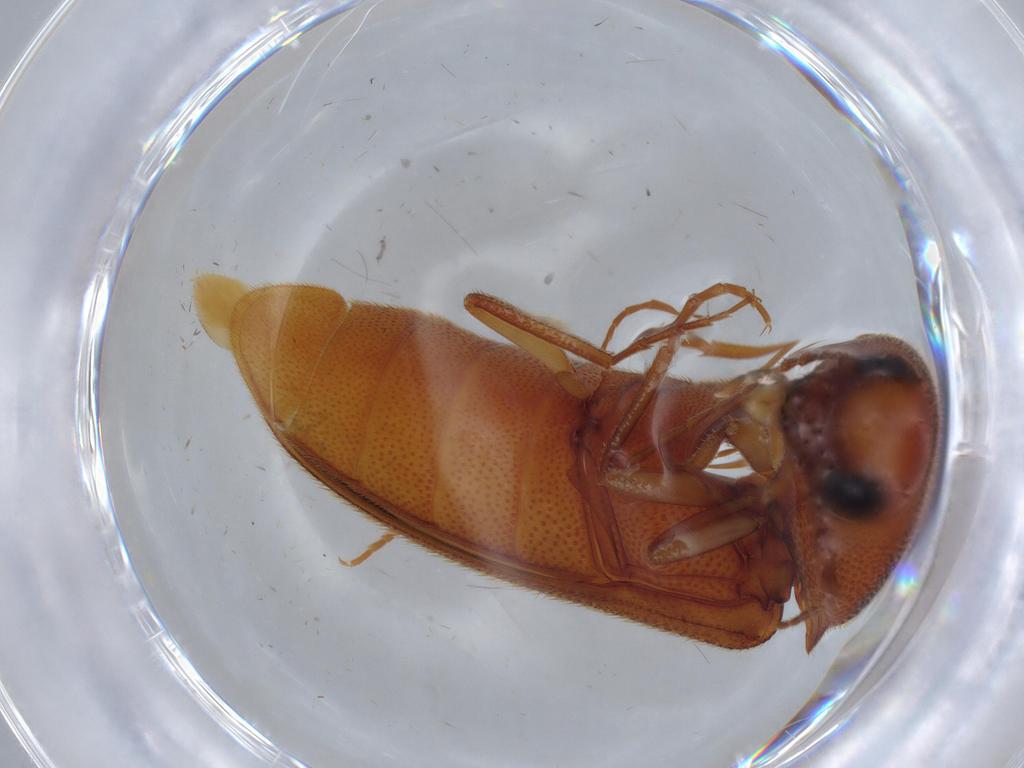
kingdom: Animalia
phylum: Arthropoda
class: Insecta
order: Coleoptera
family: Elateridae
